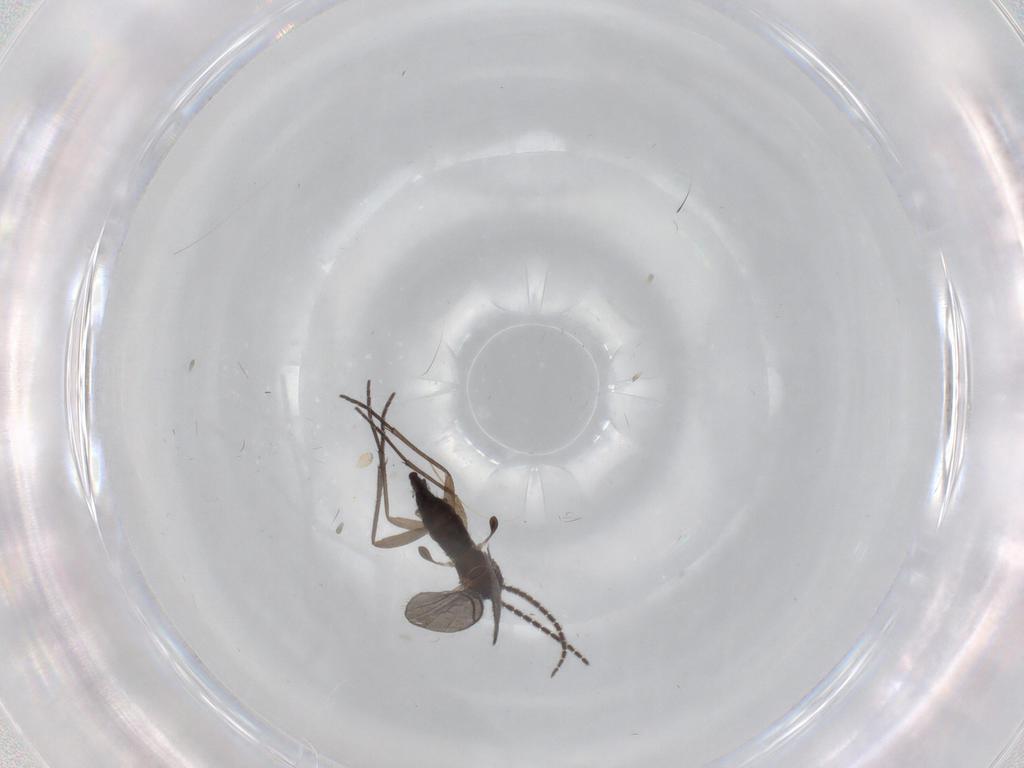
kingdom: Animalia
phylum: Arthropoda
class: Insecta
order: Diptera
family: Sciaridae
